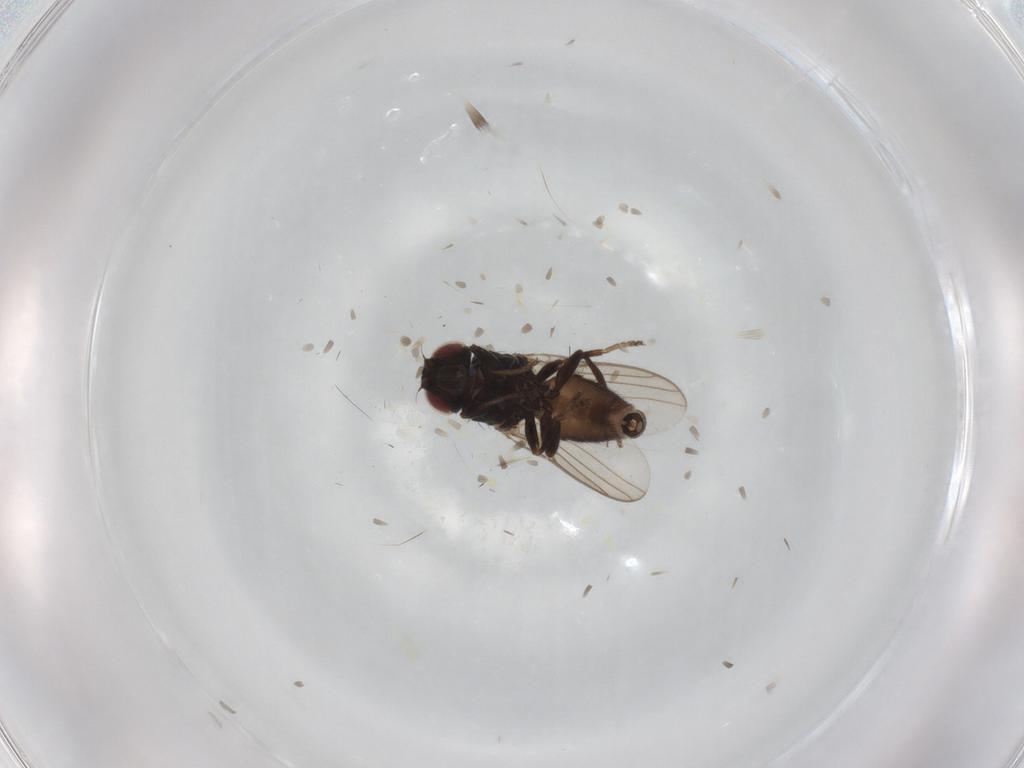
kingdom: Animalia
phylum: Arthropoda
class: Insecta
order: Diptera
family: Chloropidae
